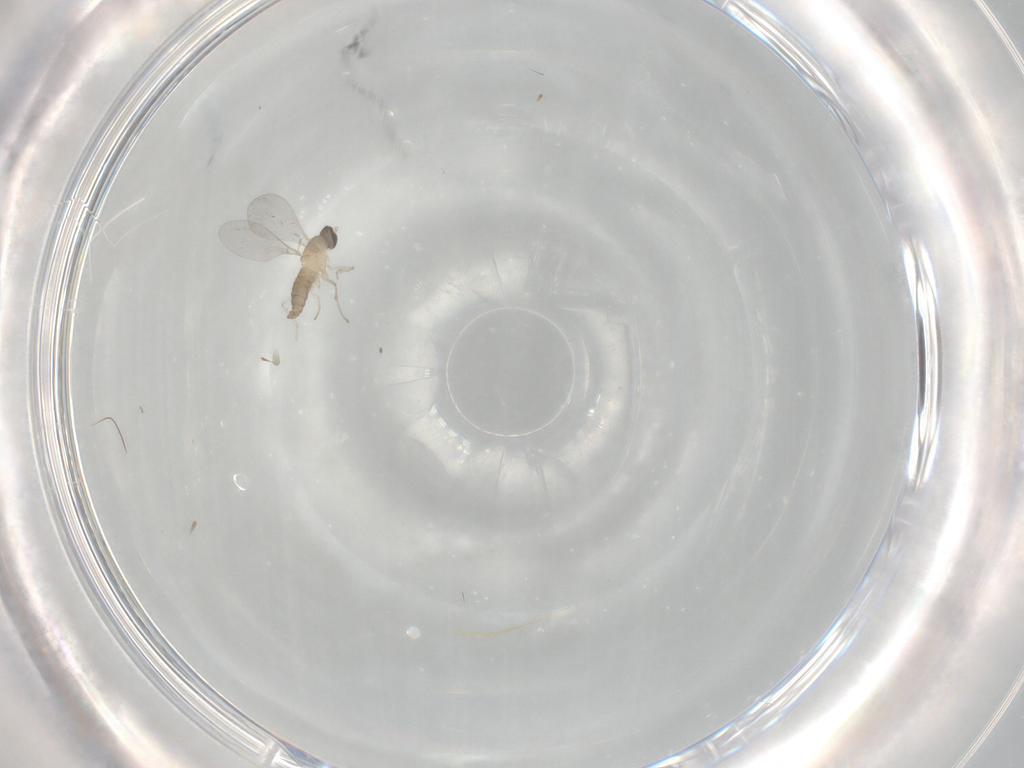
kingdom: Animalia
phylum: Arthropoda
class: Insecta
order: Diptera
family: Cecidomyiidae
